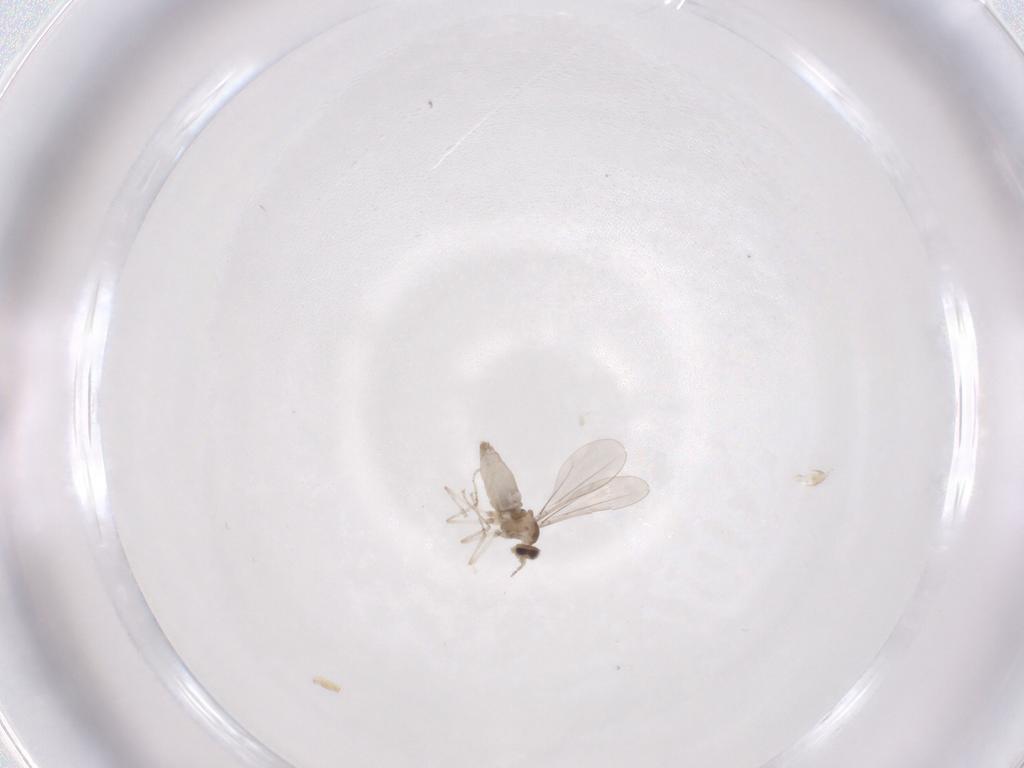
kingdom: Animalia
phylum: Arthropoda
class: Insecta
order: Diptera
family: Cecidomyiidae
